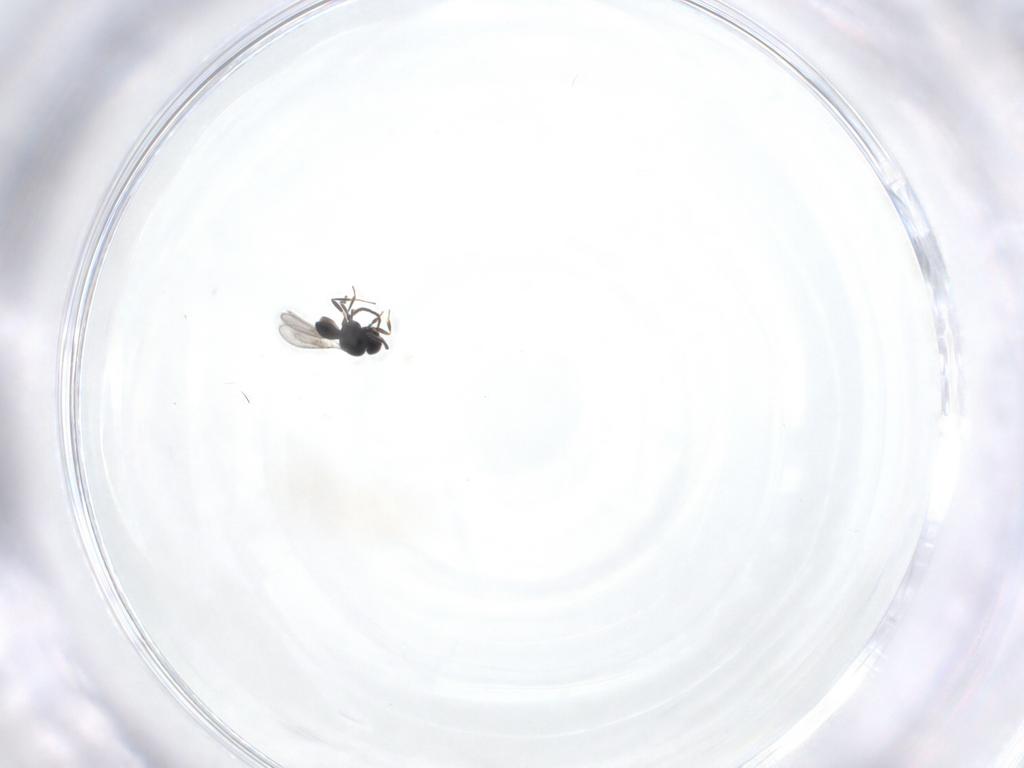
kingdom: Animalia
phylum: Arthropoda
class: Insecta
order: Hymenoptera
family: Scelionidae
